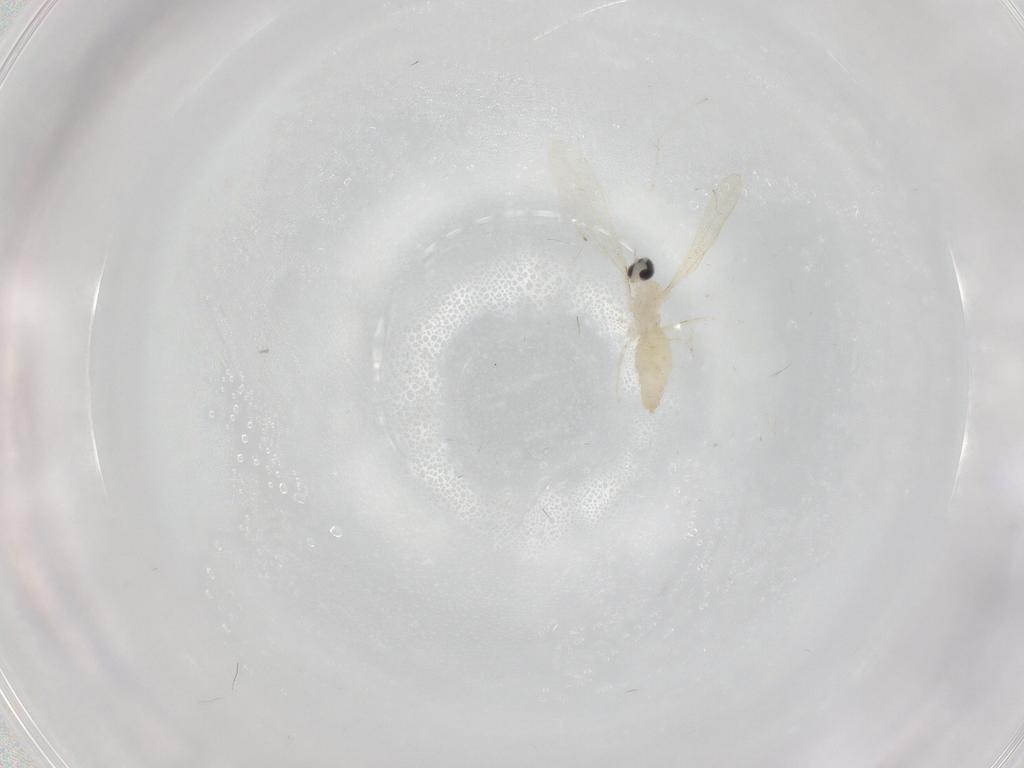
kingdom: Animalia
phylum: Arthropoda
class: Insecta
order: Diptera
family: Cecidomyiidae
